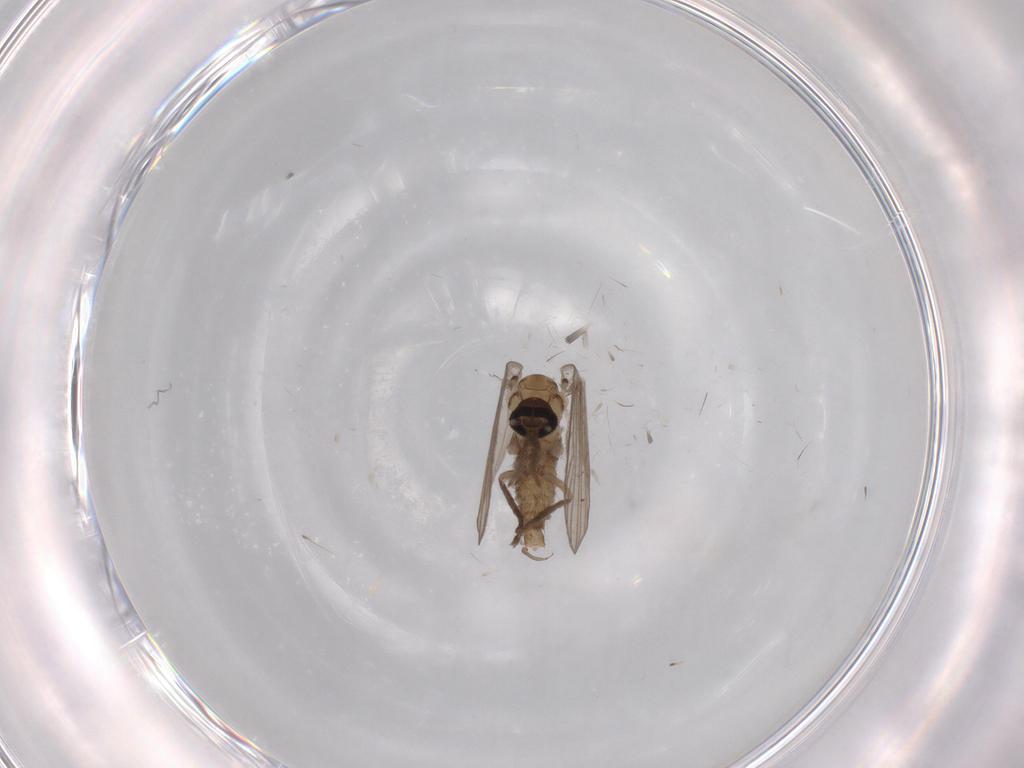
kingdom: Animalia
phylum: Arthropoda
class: Insecta
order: Diptera
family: Psychodidae
